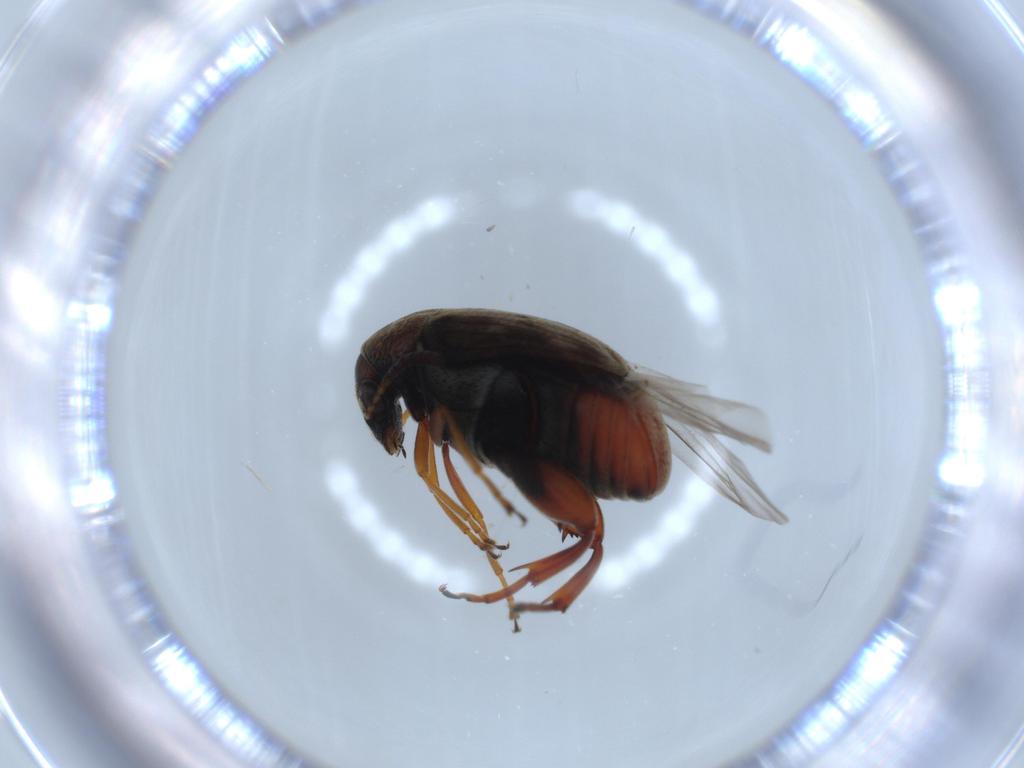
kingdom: Animalia
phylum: Arthropoda
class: Insecta
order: Coleoptera
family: Chrysomelidae
